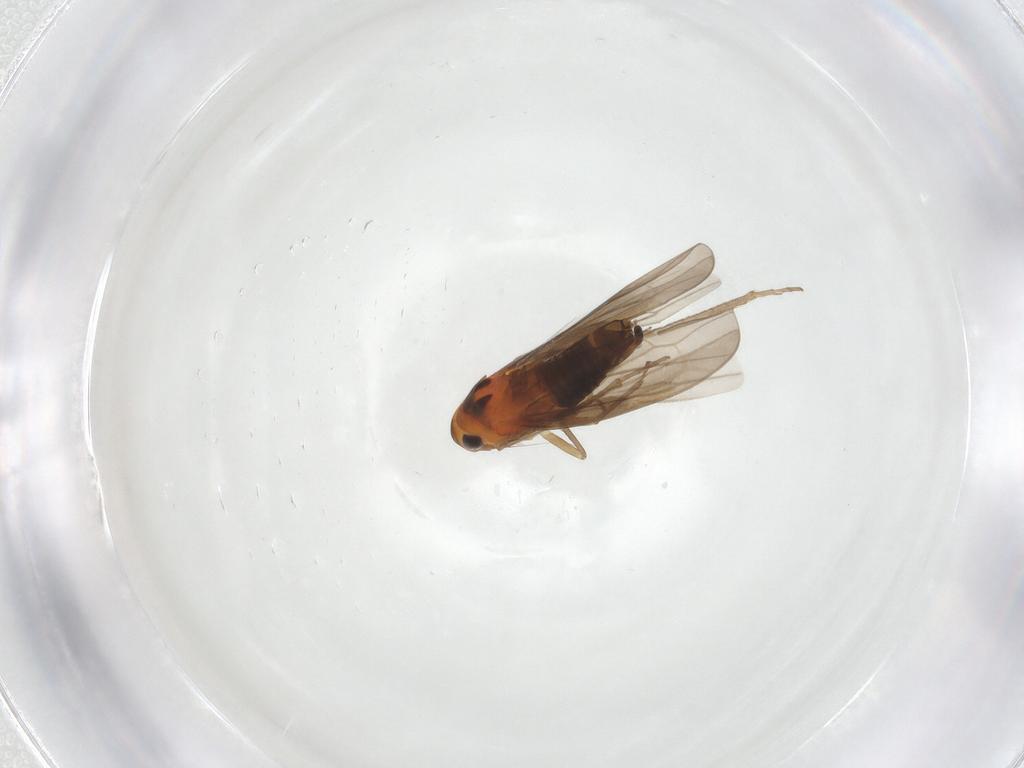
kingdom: Animalia
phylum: Arthropoda
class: Insecta
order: Hemiptera
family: Cicadellidae
